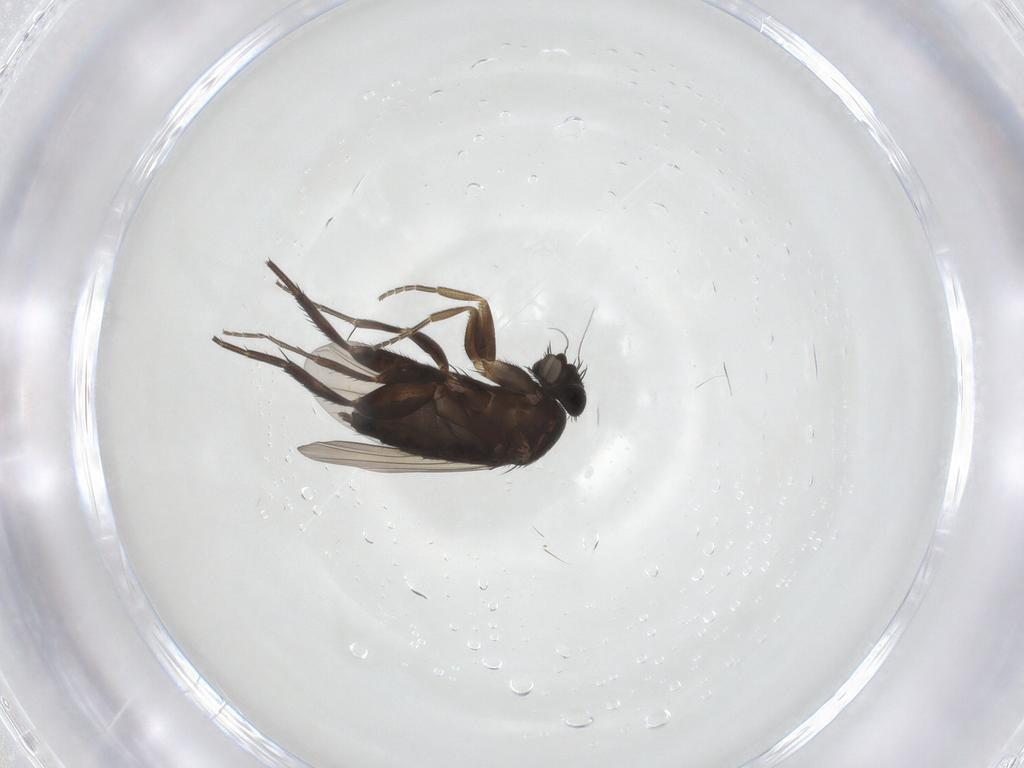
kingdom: Animalia
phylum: Arthropoda
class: Insecta
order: Diptera
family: Phoridae
